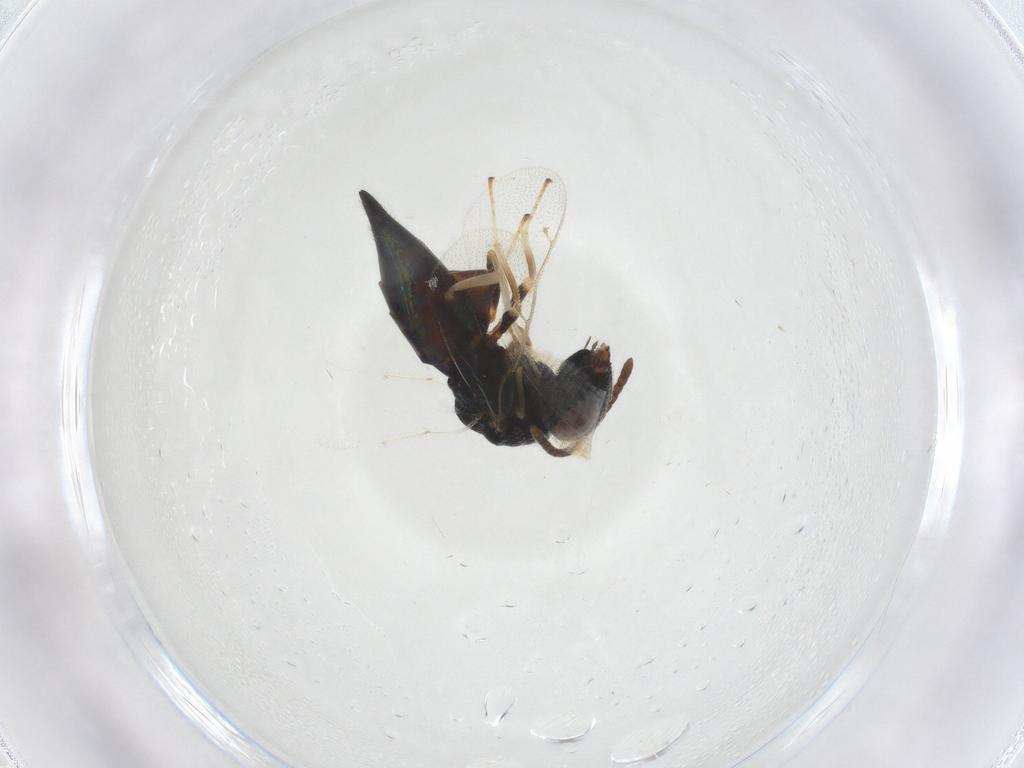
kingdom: Animalia
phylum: Arthropoda
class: Insecta
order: Hymenoptera
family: Pteromalidae
